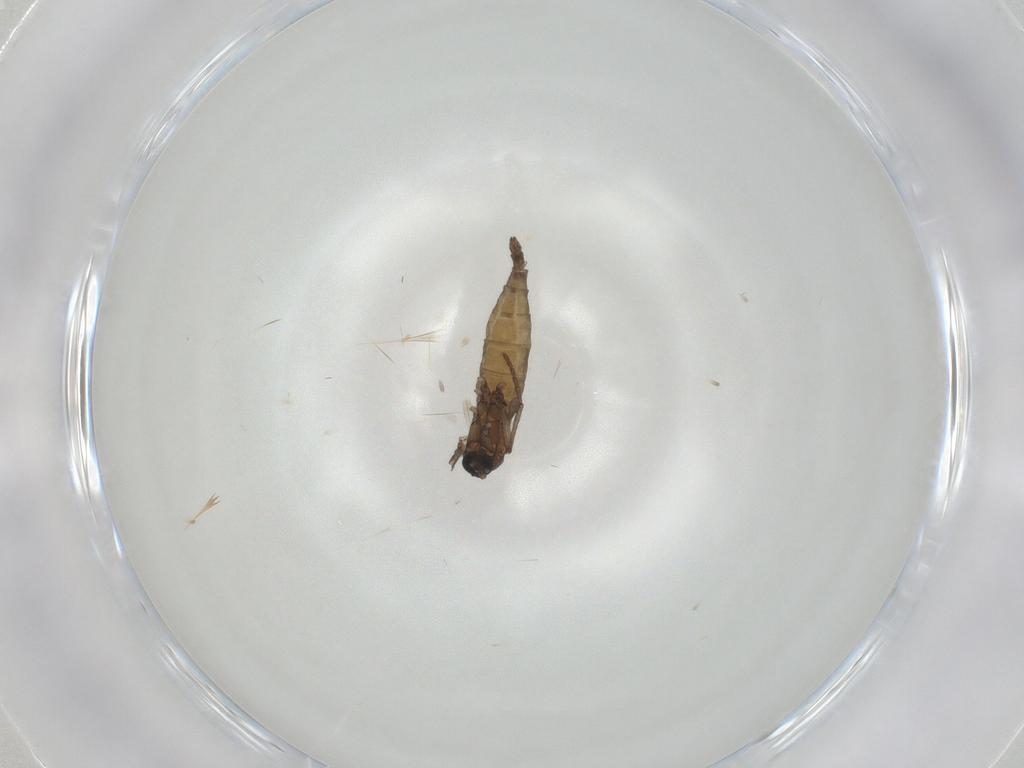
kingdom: Animalia
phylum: Arthropoda
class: Insecta
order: Diptera
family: Sciaridae
